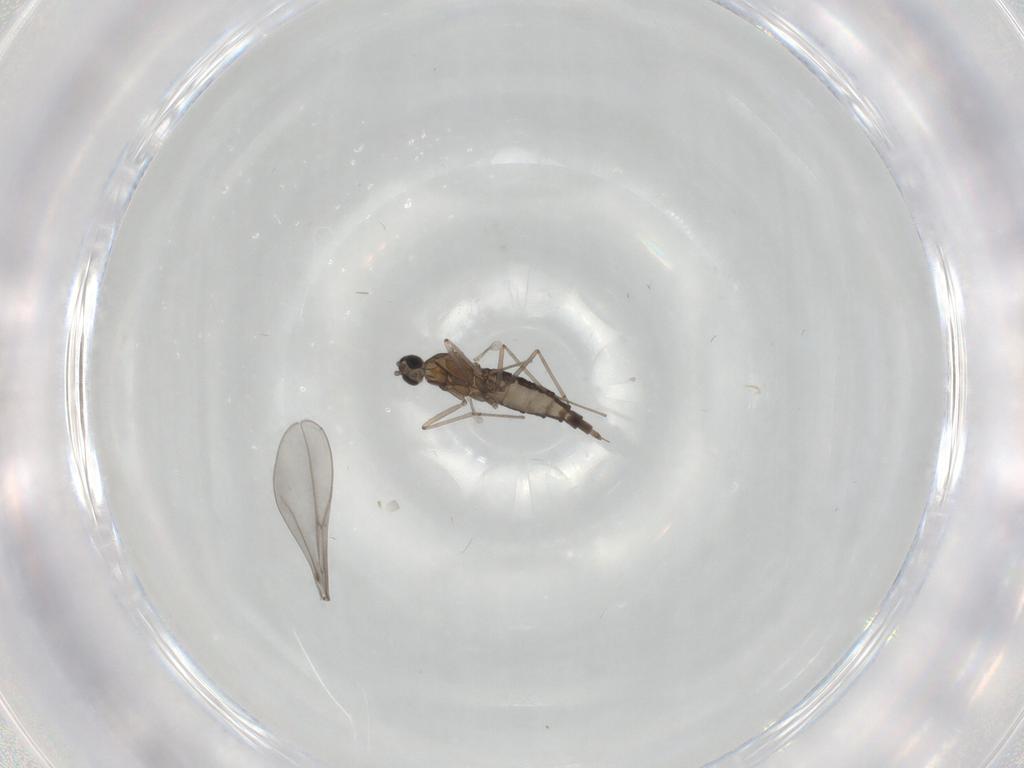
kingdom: Animalia
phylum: Arthropoda
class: Insecta
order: Diptera
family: Cecidomyiidae
